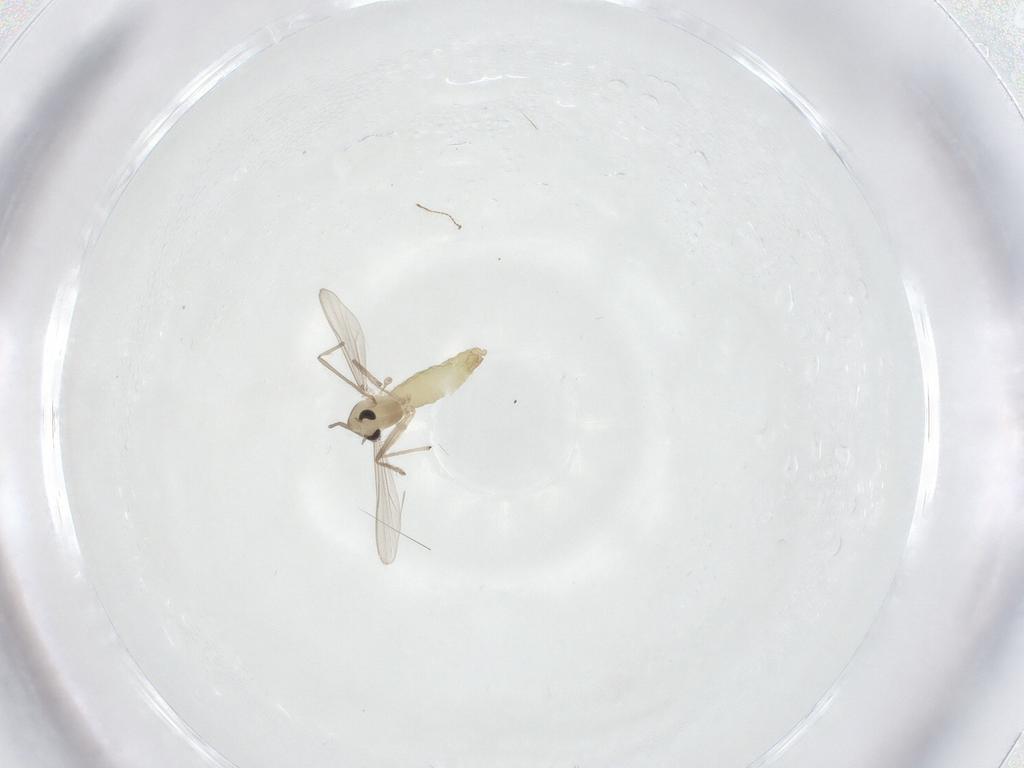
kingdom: Animalia
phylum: Arthropoda
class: Insecta
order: Diptera
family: Chironomidae
